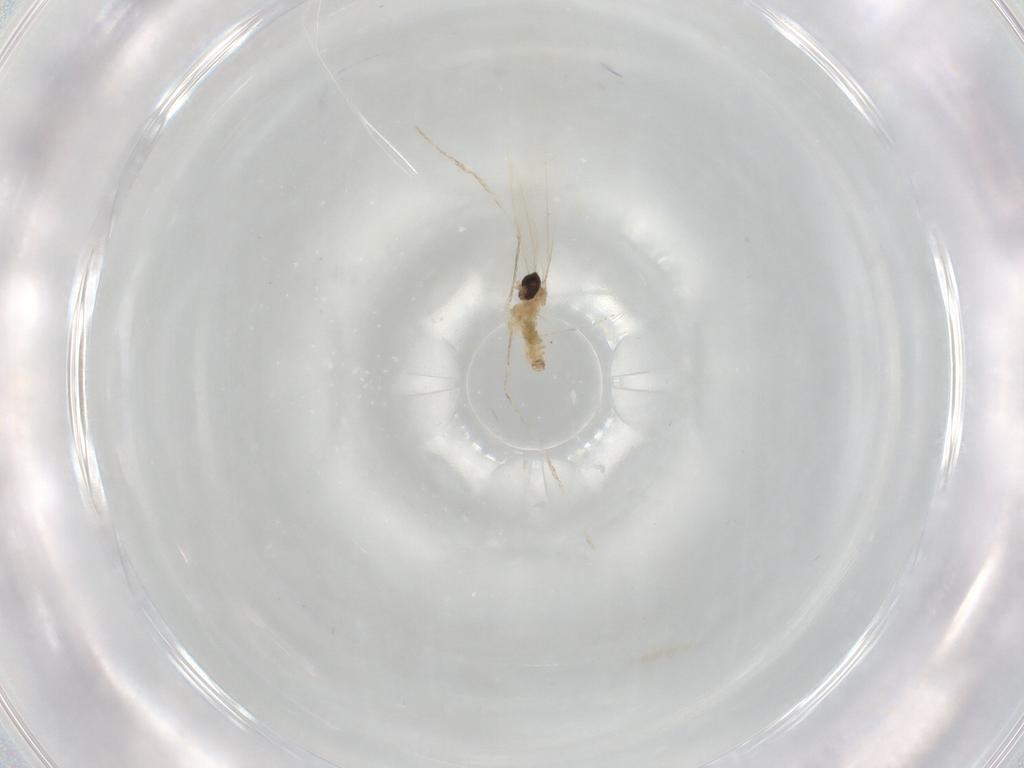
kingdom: Animalia
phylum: Arthropoda
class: Insecta
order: Diptera
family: Cecidomyiidae
